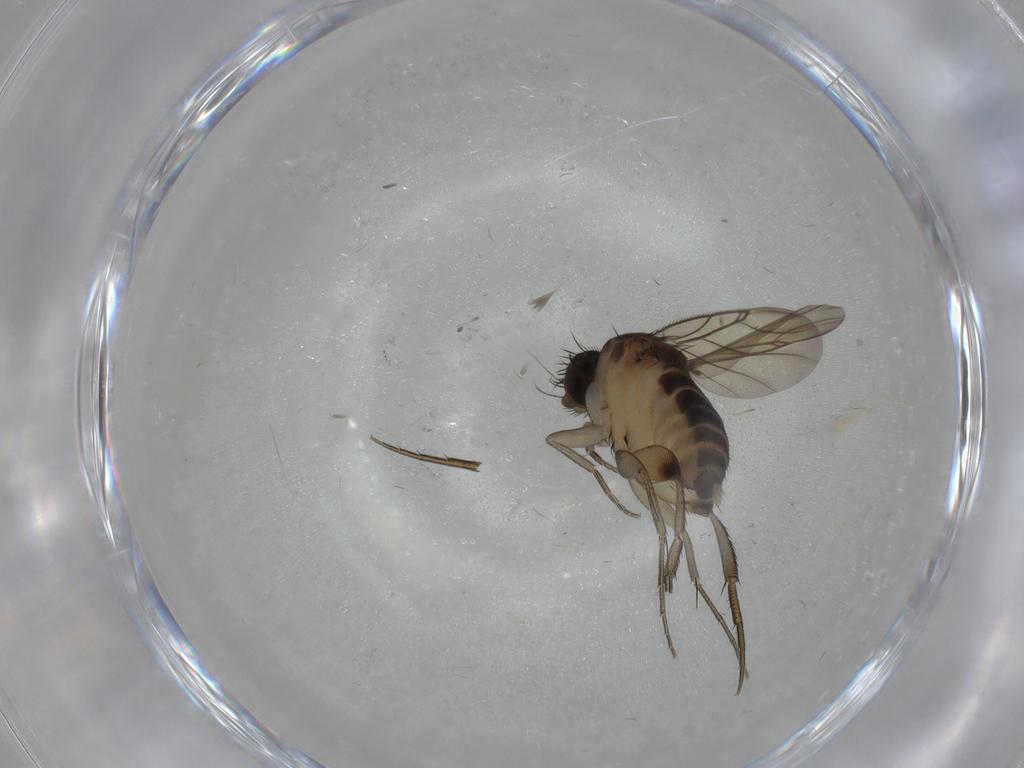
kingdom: Animalia
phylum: Arthropoda
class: Insecta
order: Diptera
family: Phoridae
